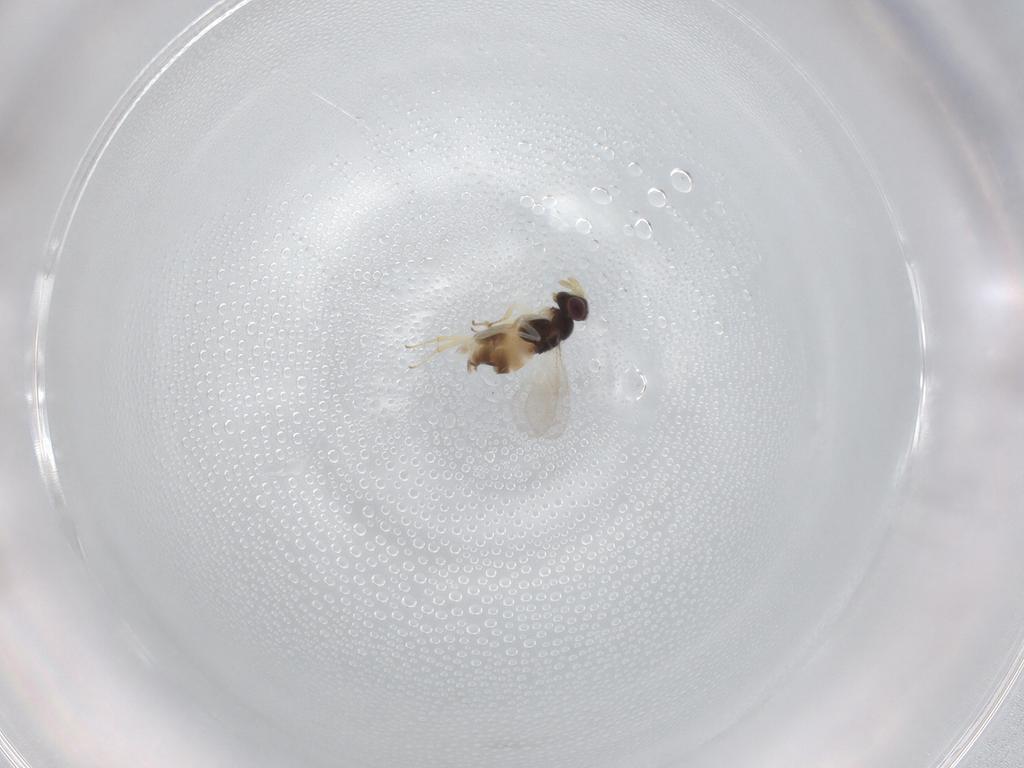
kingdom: Animalia
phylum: Arthropoda
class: Insecta
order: Hymenoptera
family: Aphelinidae
